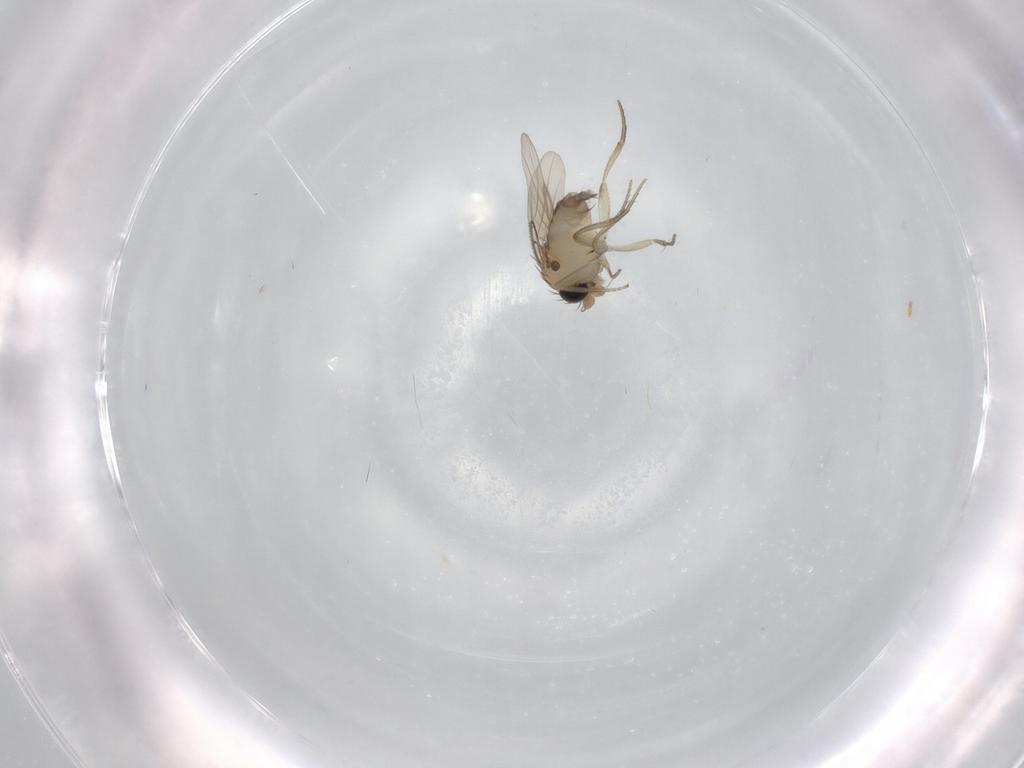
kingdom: Animalia
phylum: Arthropoda
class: Insecta
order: Diptera
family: Phoridae
